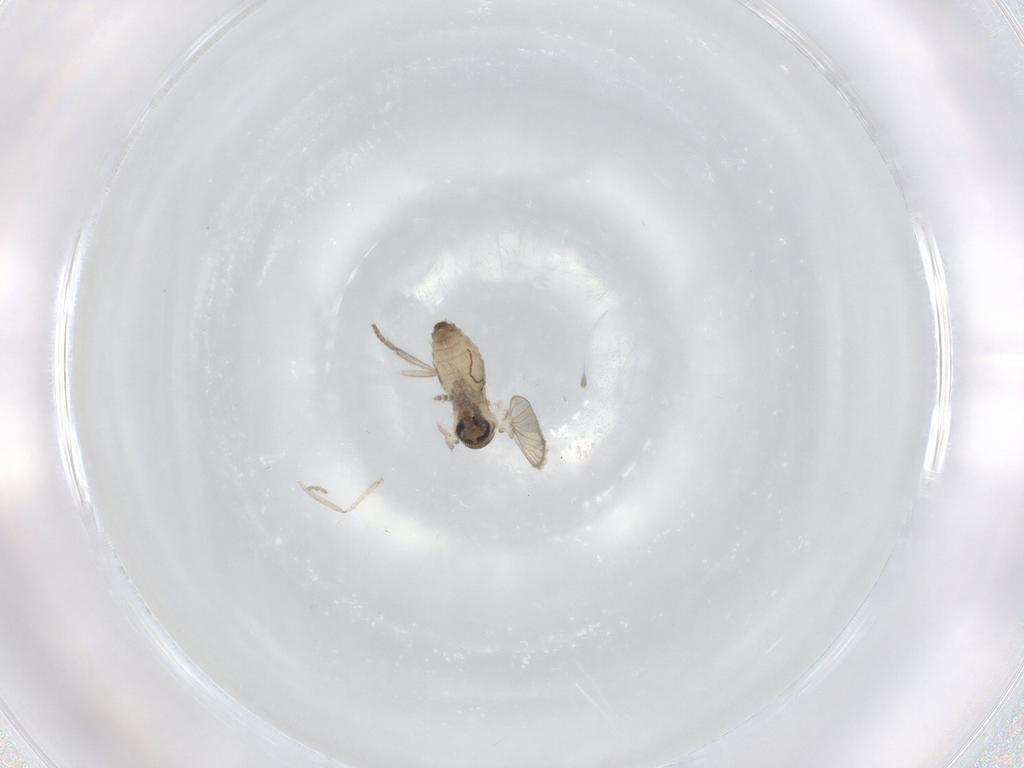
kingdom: Animalia
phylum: Arthropoda
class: Insecta
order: Diptera
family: Psychodidae
